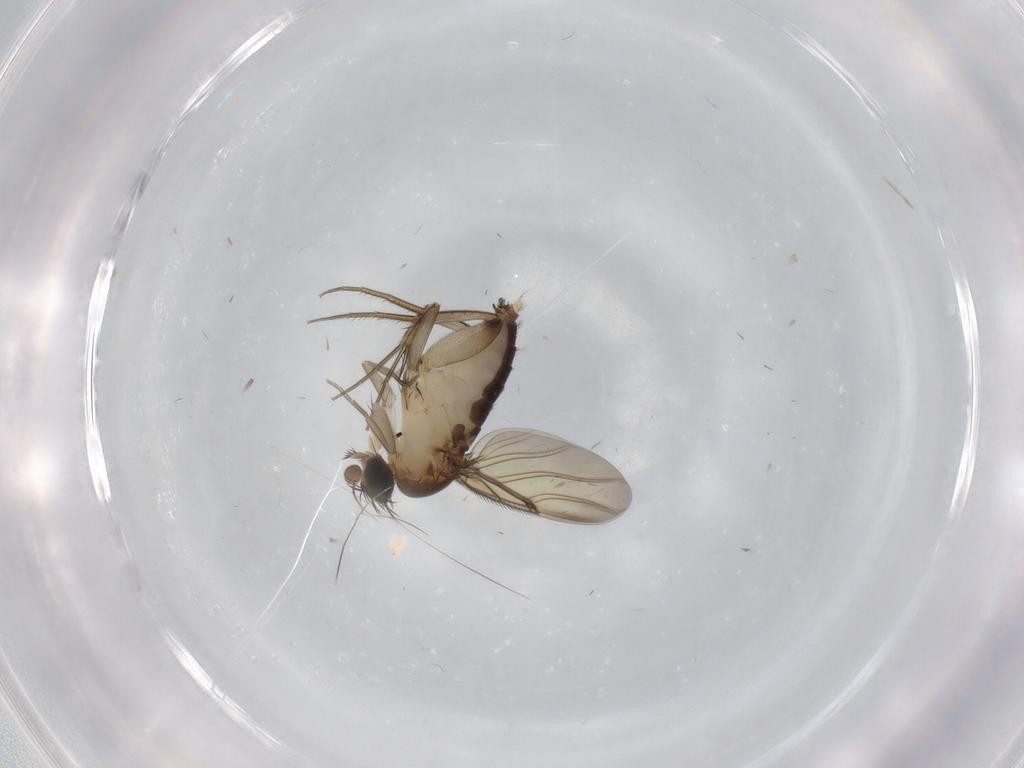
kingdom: Animalia
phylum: Arthropoda
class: Insecta
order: Diptera
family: Phoridae
